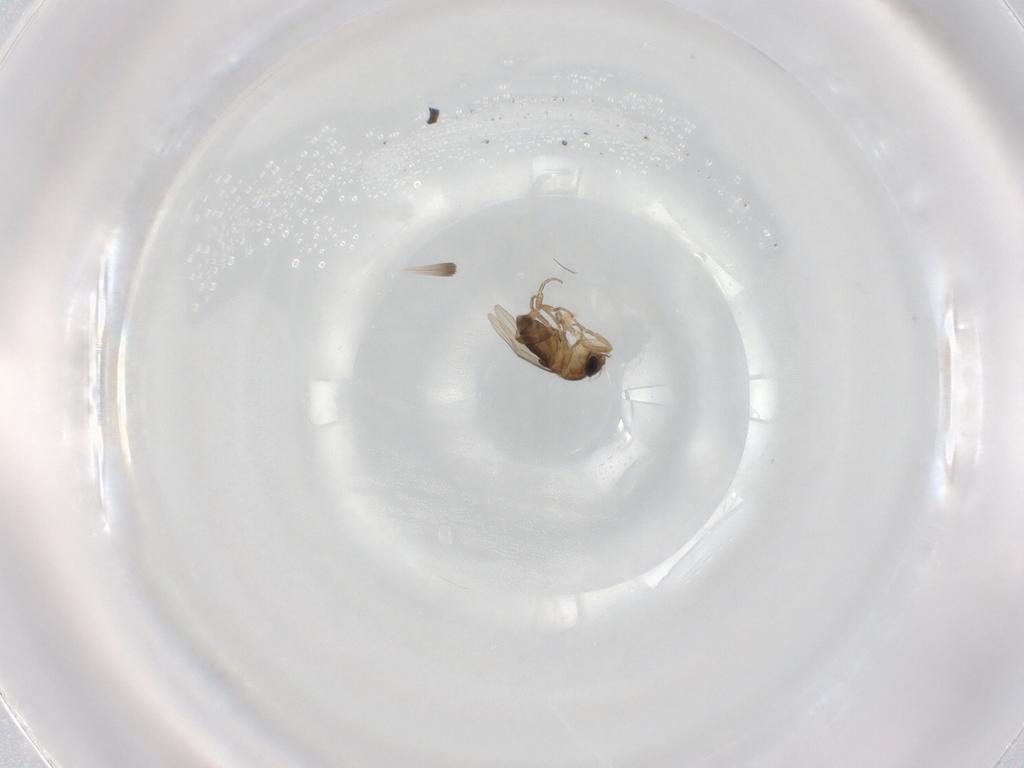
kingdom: Animalia
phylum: Arthropoda
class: Insecta
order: Diptera
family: Phoridae
